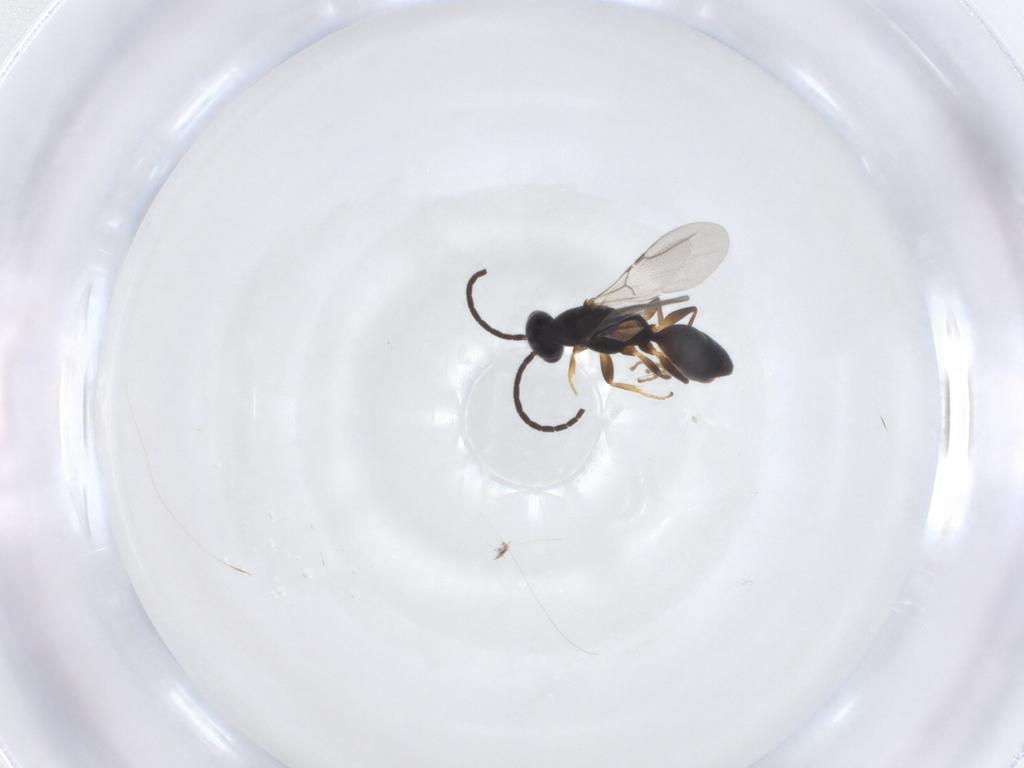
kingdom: Animalia
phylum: Arthropoda
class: Insecta
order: Hymenoptera
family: Bethylidae
